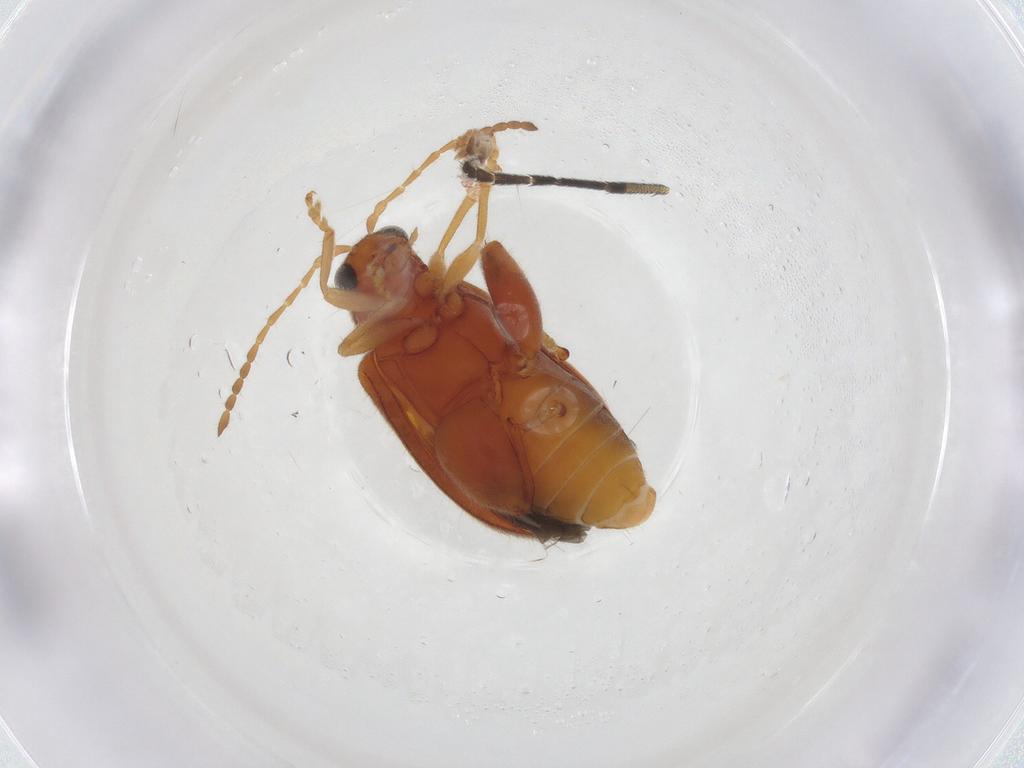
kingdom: Animalia
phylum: Arthropoda
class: Insecta
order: Coleoptera
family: Chrysomelidae
